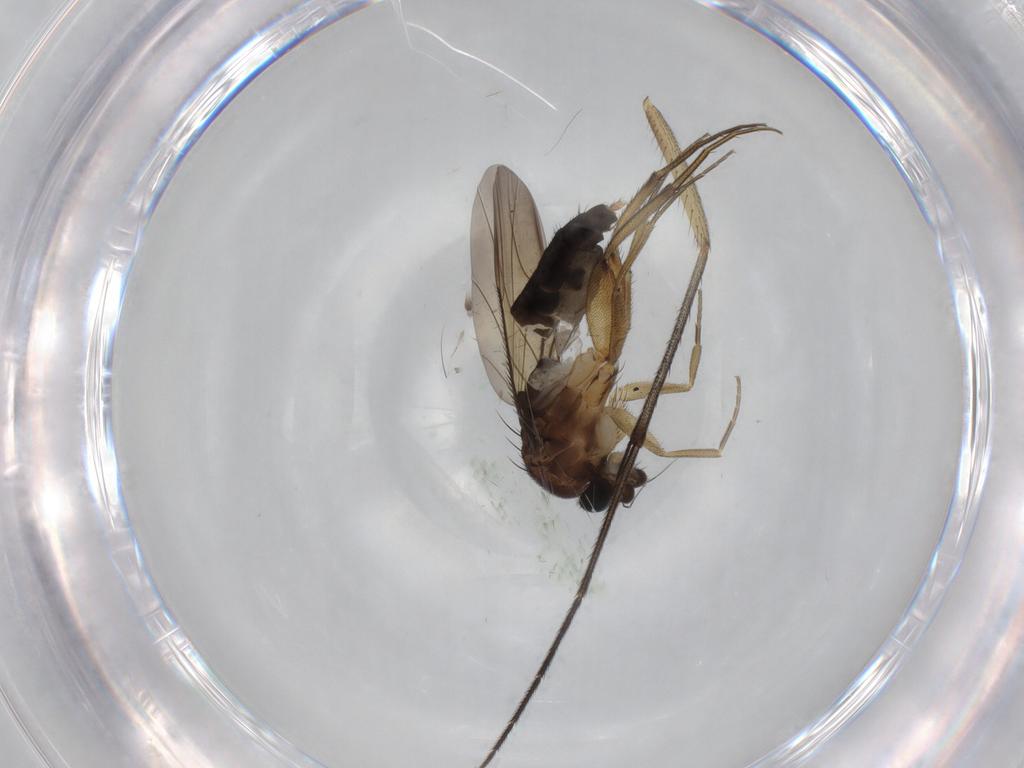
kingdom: Animalia
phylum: Arthropoda
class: Insecta
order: Diptera
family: Phoridae
